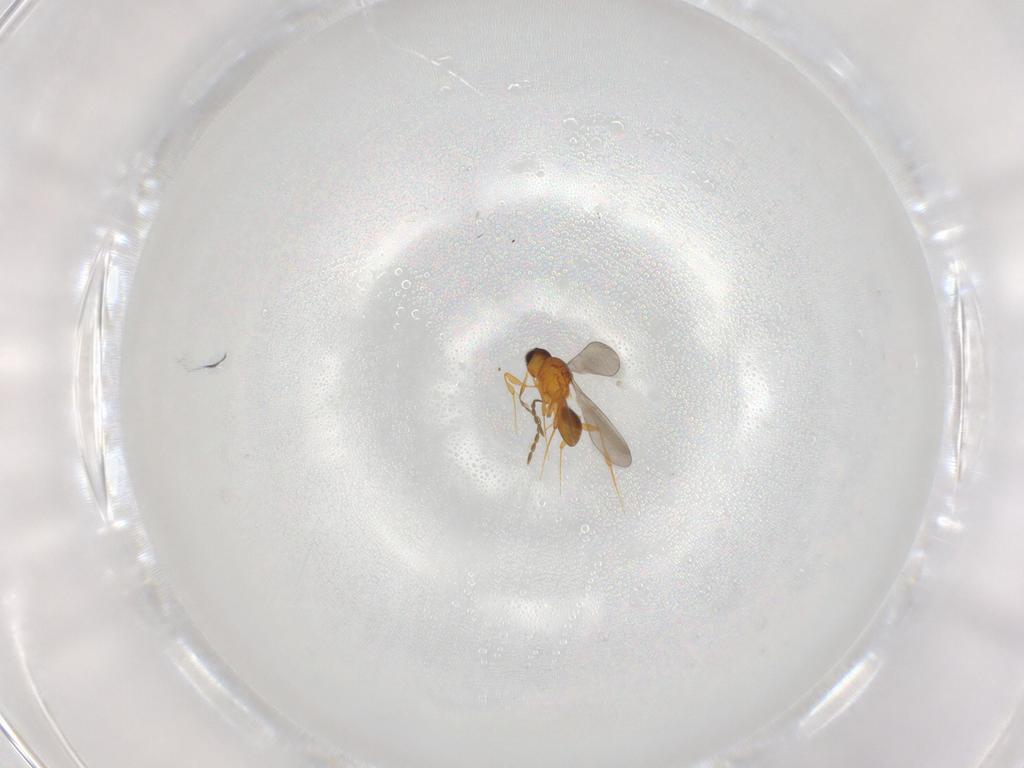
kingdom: Animalia
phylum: Arthropoda
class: Insecta
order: Hymenoptera
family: Platygastridae
